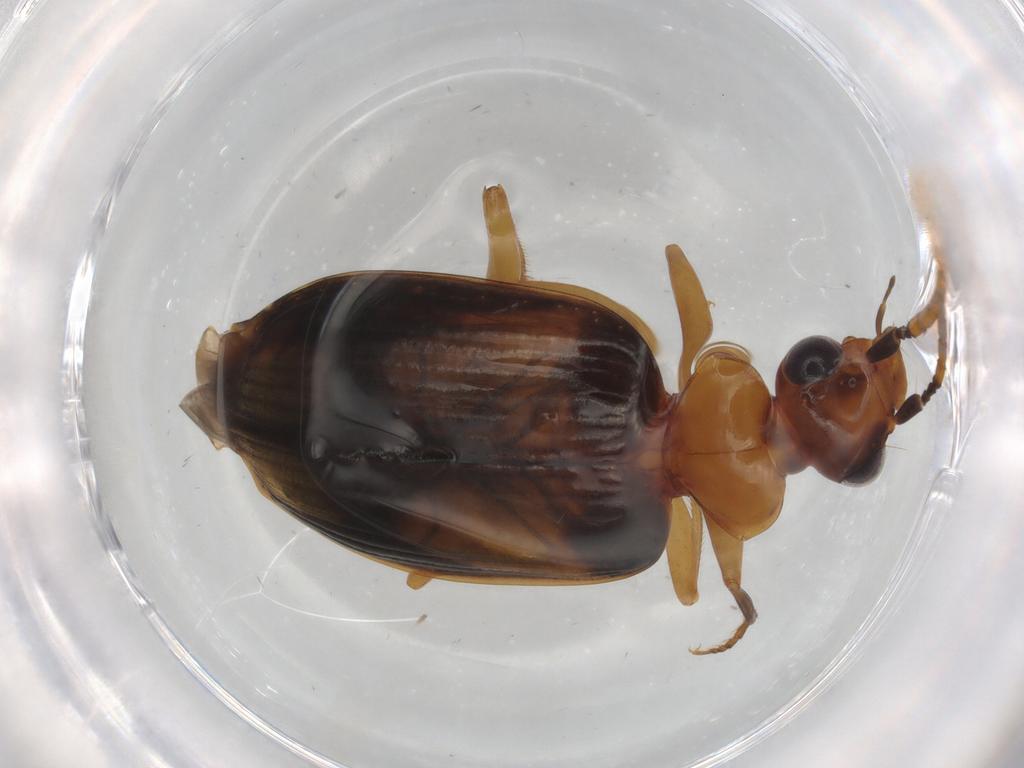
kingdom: Animalia
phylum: Arthropoda
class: Insecta
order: Coleoptera
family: Carabidae
